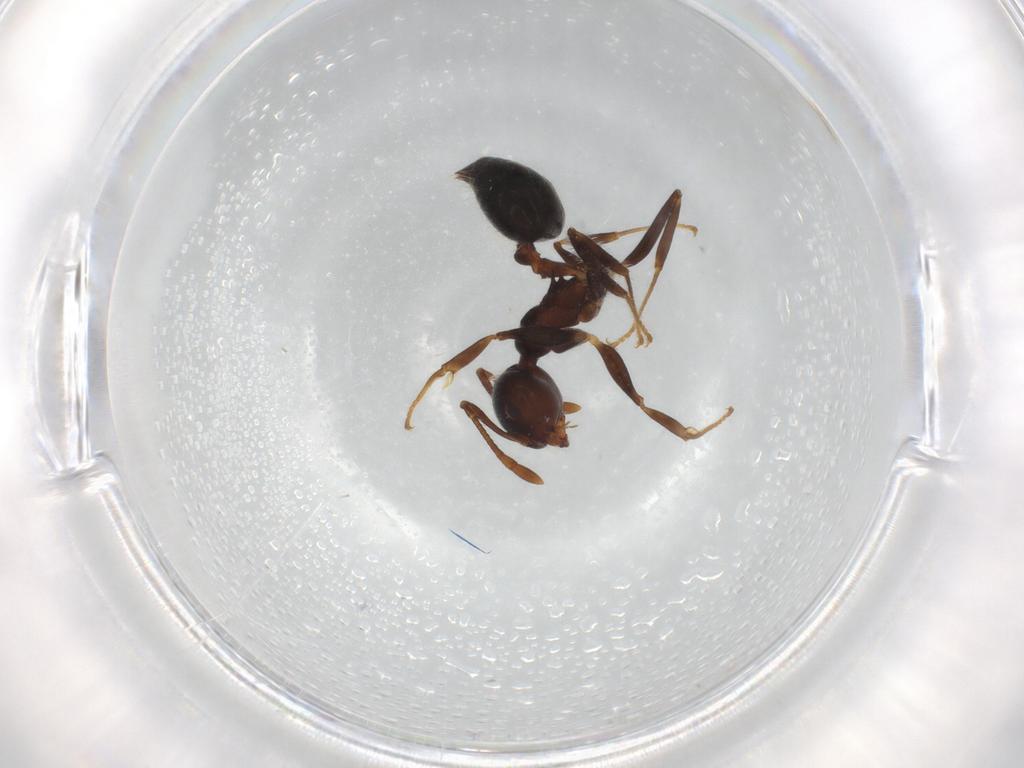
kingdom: Animalia
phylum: Arthropoda
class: Insecta
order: Hymenoptera
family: Formicidae
